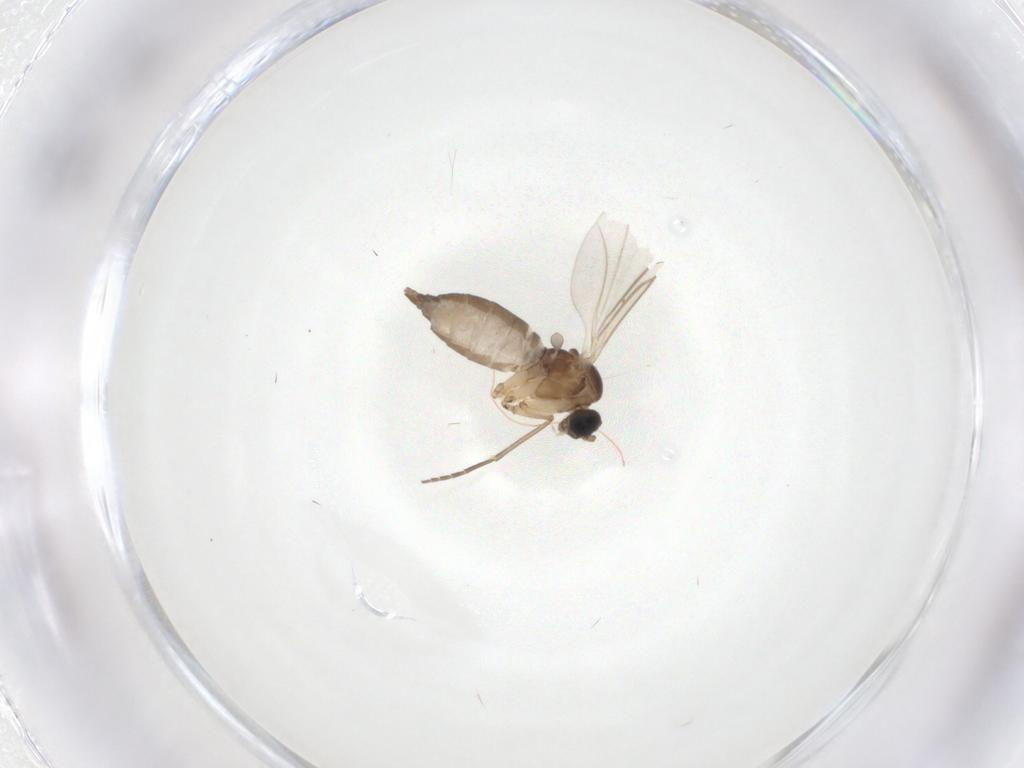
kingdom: Animalia
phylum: Arthropoda
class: Insecta
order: Diptera
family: Sciaridae
